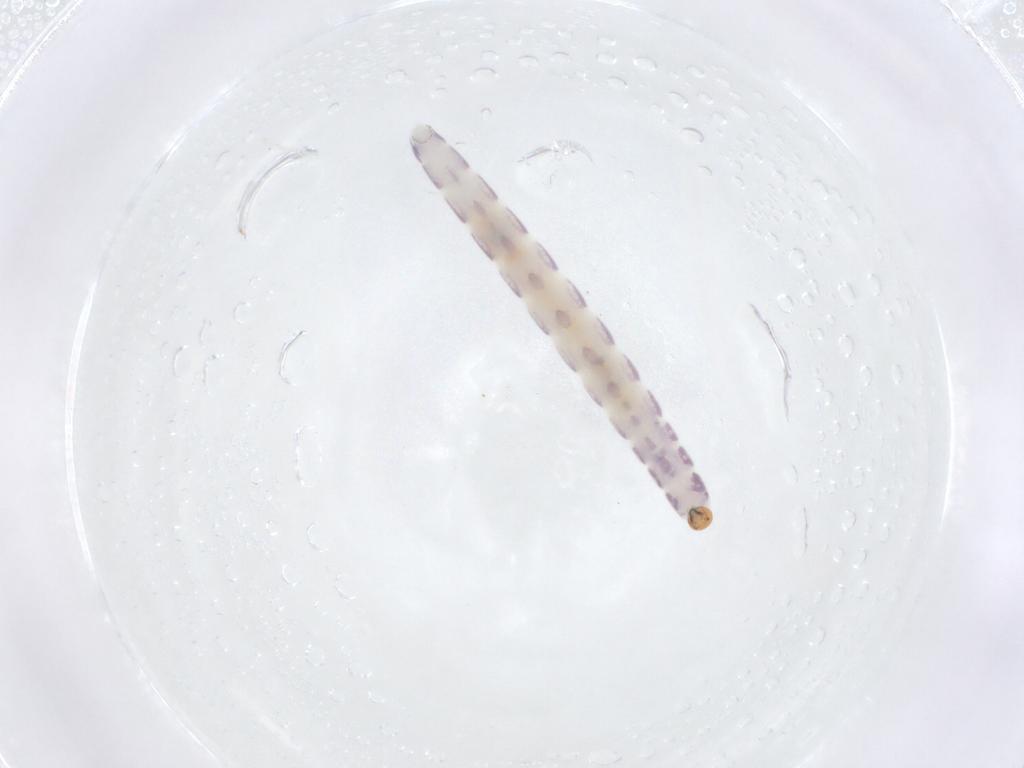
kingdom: Animalia
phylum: Arthropoda
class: Insecta
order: Diptera
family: Chironomidae
